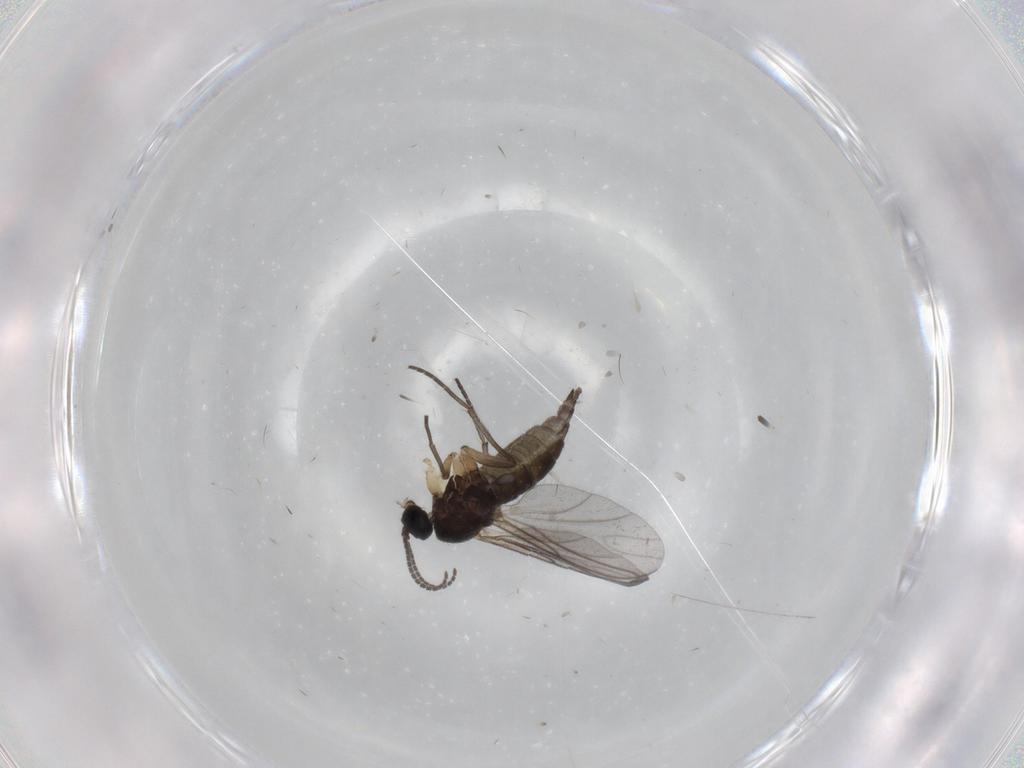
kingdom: Animalia
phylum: Arthropoda
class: Insecta
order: Diptera
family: Sciaridae
